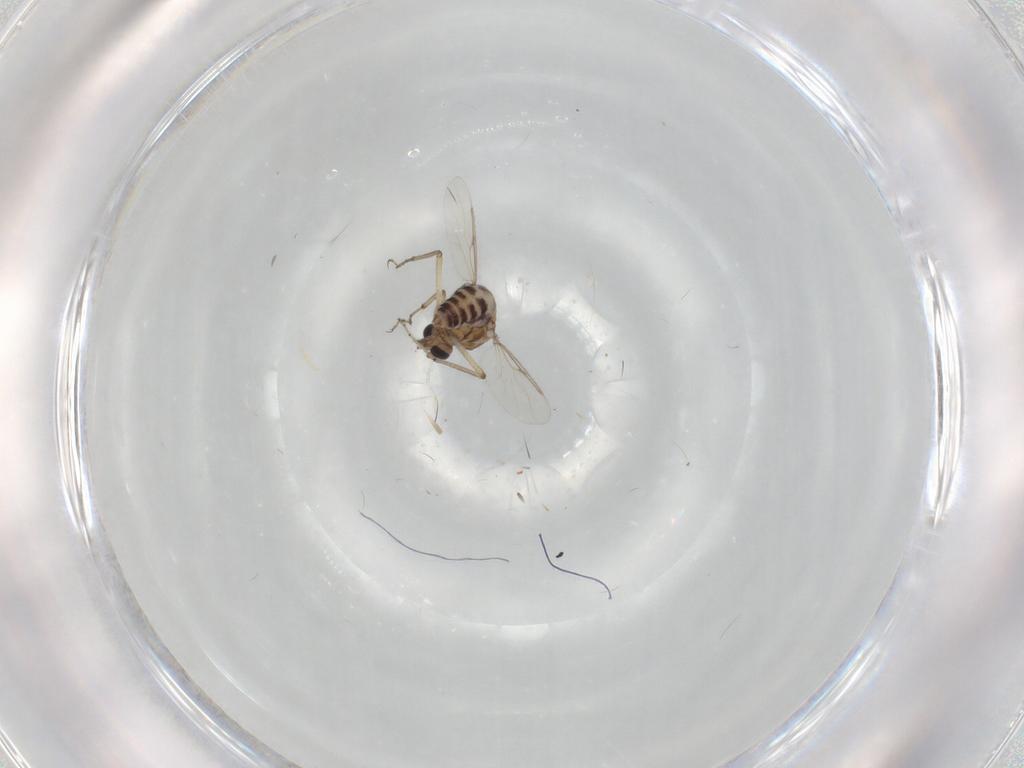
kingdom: Animalia
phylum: Arthropoda
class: Insecta
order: Diptera
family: Ceratopogonidae
